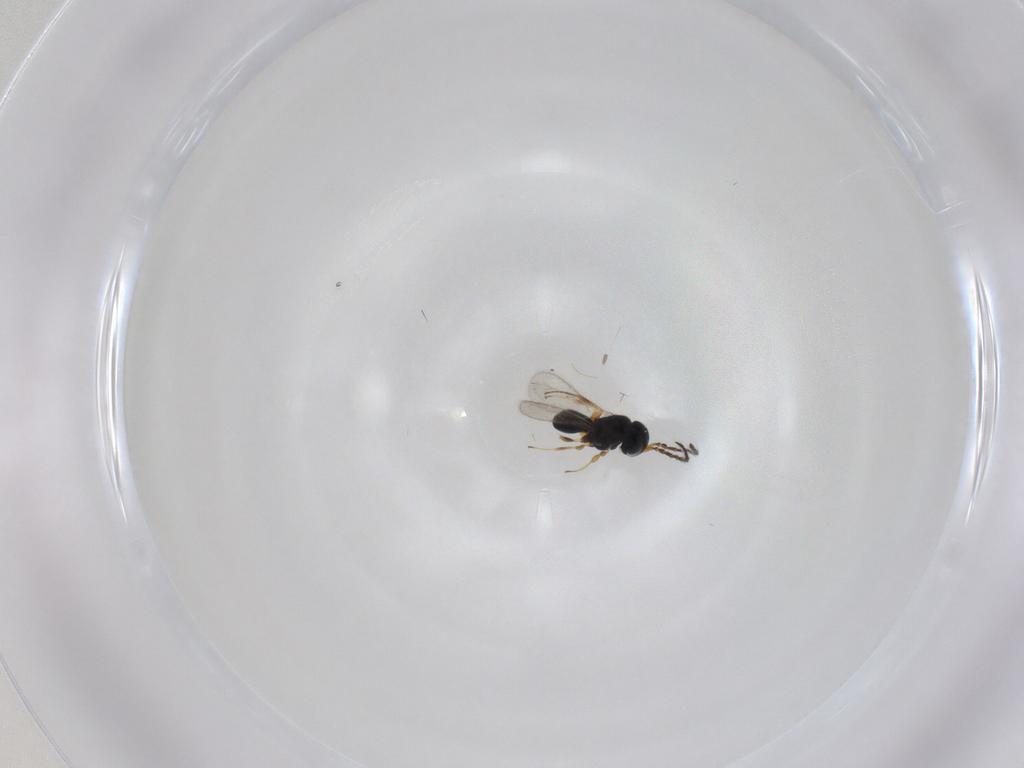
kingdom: Animalia
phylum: Arthropoda
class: Insecta
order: Hymenoptera
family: Scelionidae
